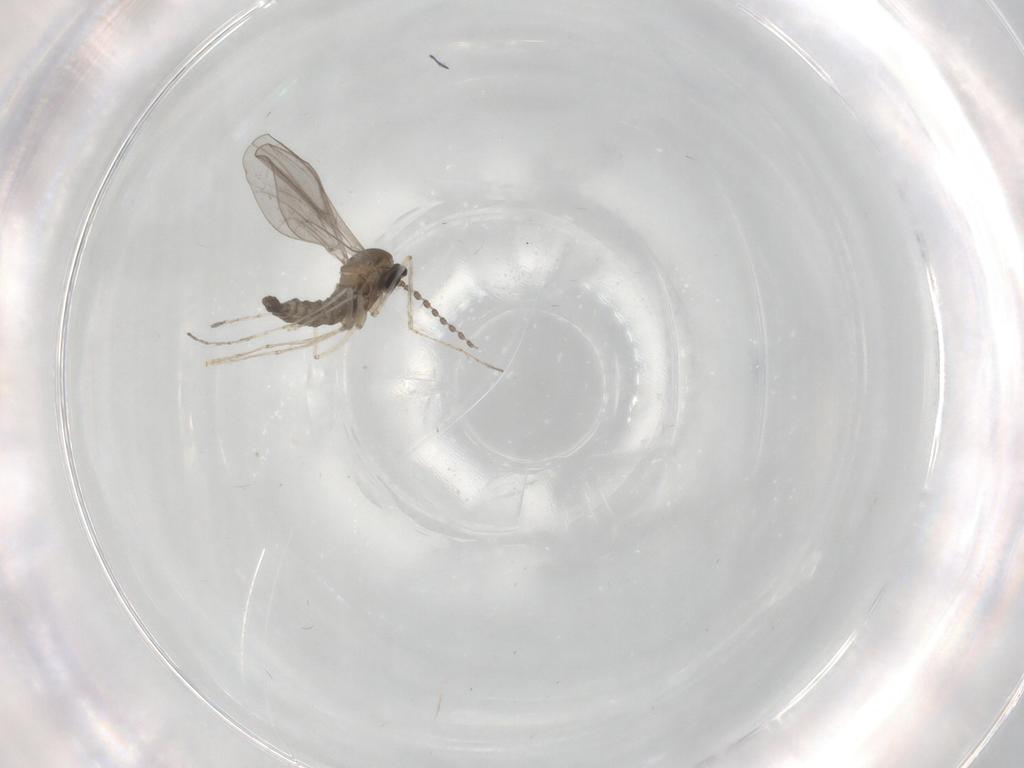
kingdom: Animalia
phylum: Arthropoda
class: Insecta
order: Diptera
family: Cecidomyiidae
